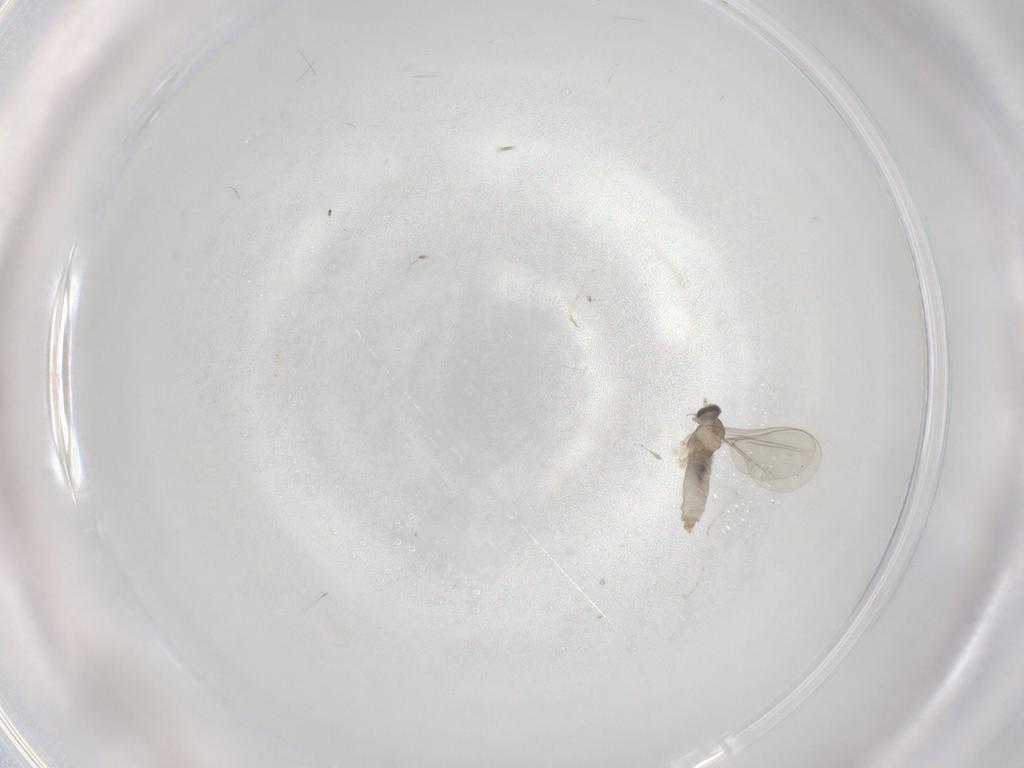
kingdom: Animalia
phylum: Arthropoda
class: Insecta
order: Diptera
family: Cecidomyiidae
